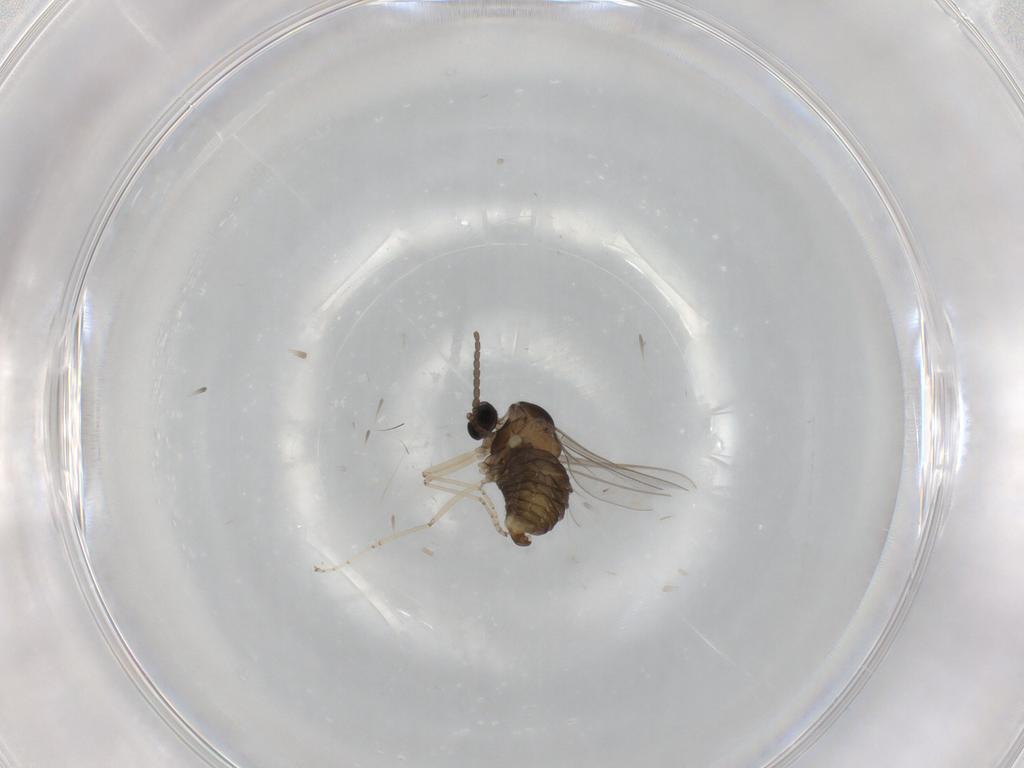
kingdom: Animalia
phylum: Arthropoda
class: Insecta
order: Diptera
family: Cecidomyiidae
